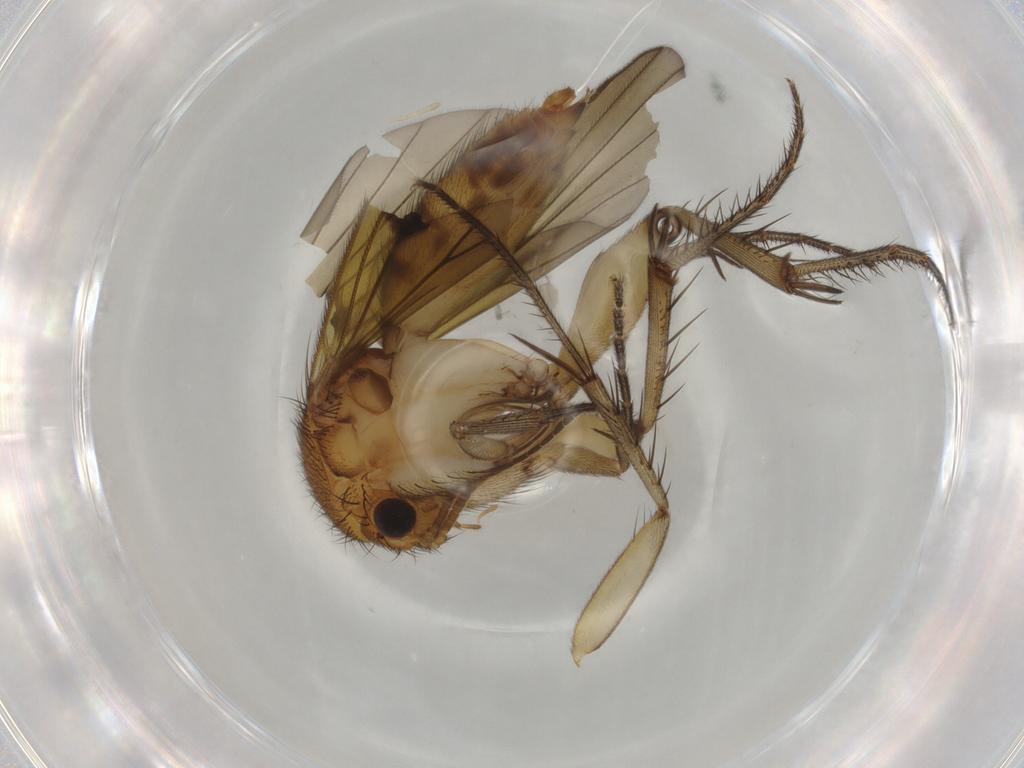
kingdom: Animalia
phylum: Arthropoda
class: Insecta
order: Diptera
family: Mycetophilidae
